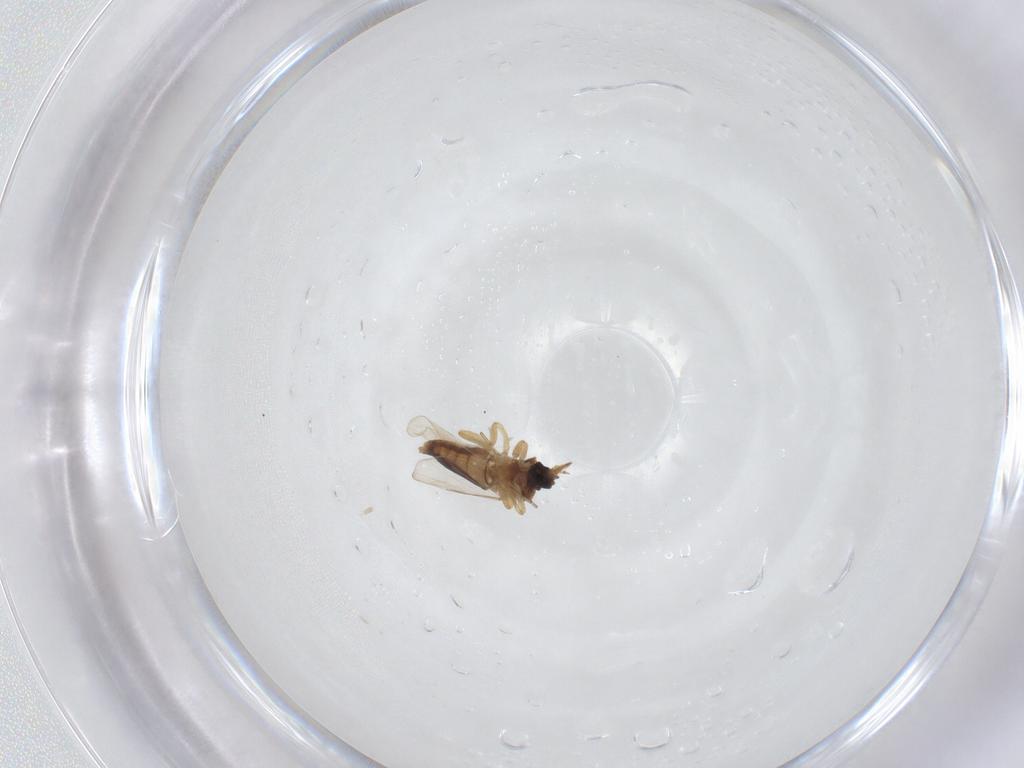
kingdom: Animalia
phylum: Arthropoda
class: Insecta
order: Diptera
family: Ceratopogonidae
